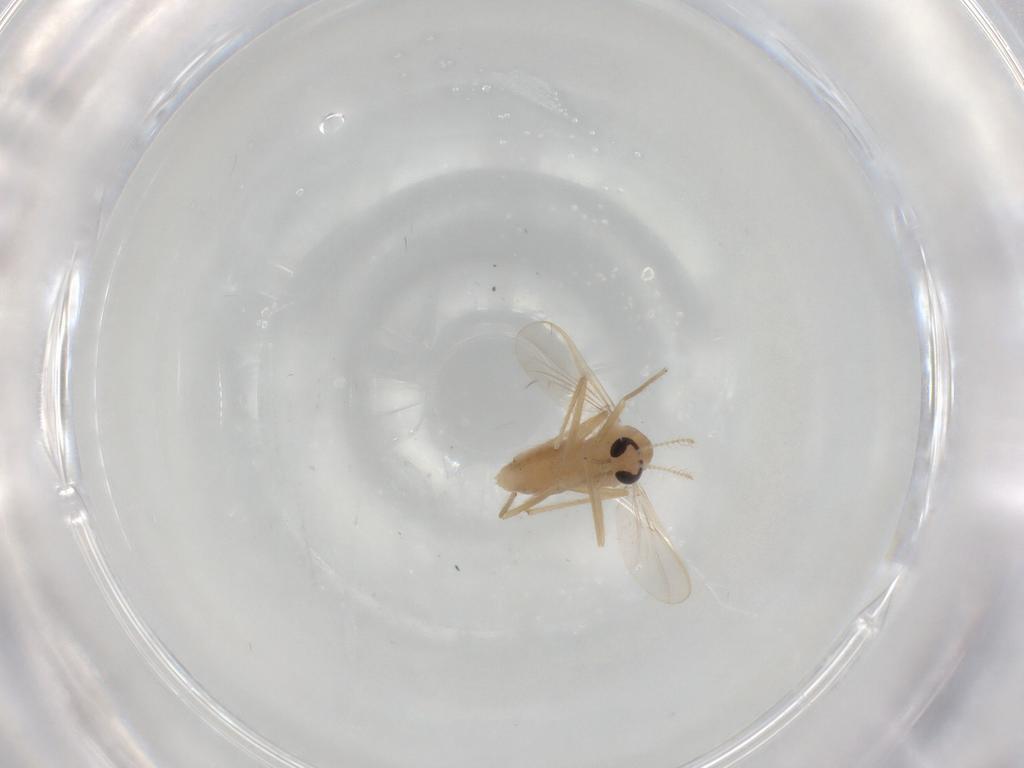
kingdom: Animalia
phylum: Arthropoda
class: Insecta
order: Diptera
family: Chironomidae
